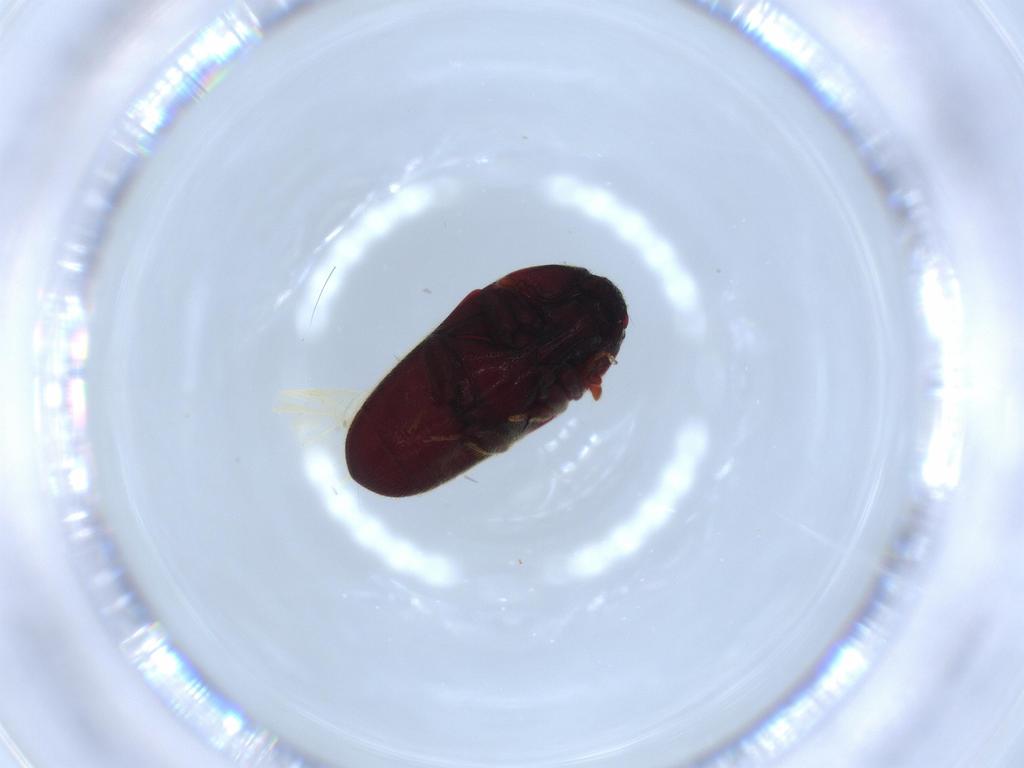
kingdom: Animalia
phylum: Arthropoda
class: Insecta
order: Coleoptera
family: Throscidae
